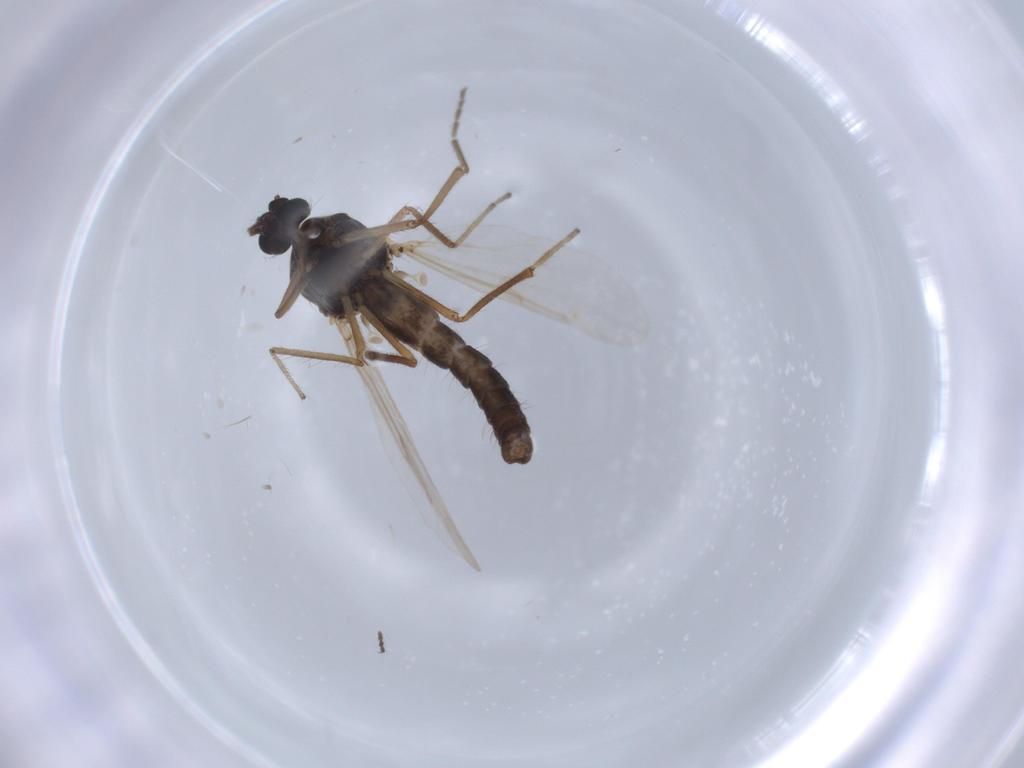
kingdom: Animalia
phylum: Arthropoda
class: Insecta
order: Diptera
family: Ceratopogonidae
